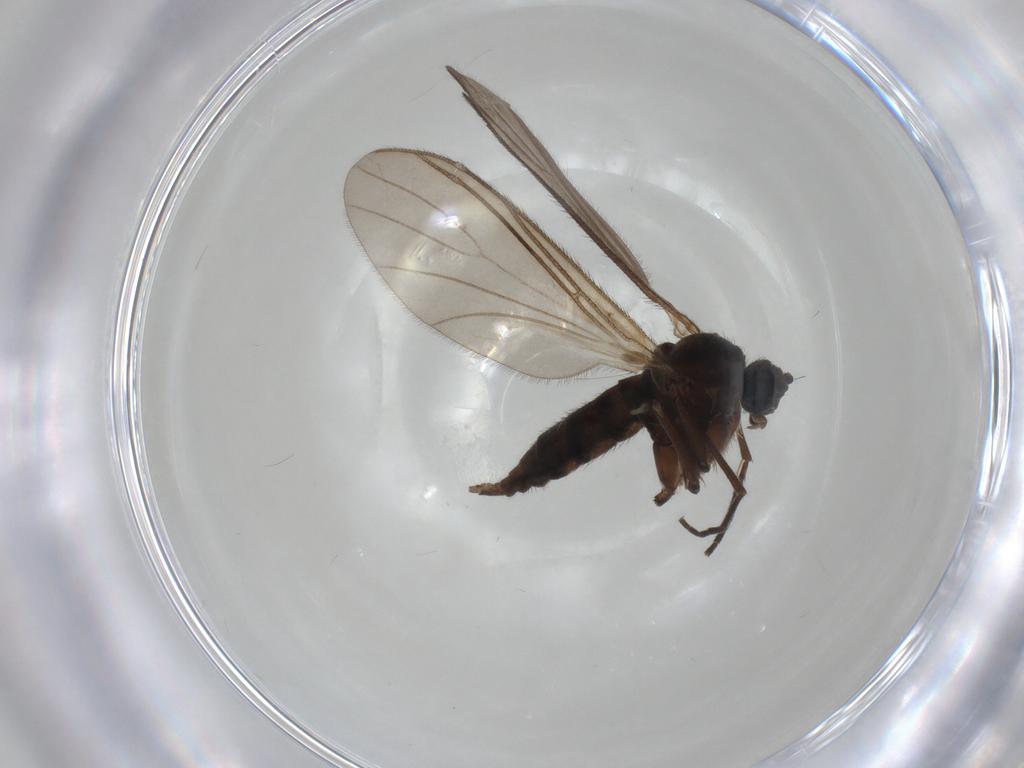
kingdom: Animalia
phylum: Arthropoda
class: Insecta
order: Diptera
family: Sciaridae
